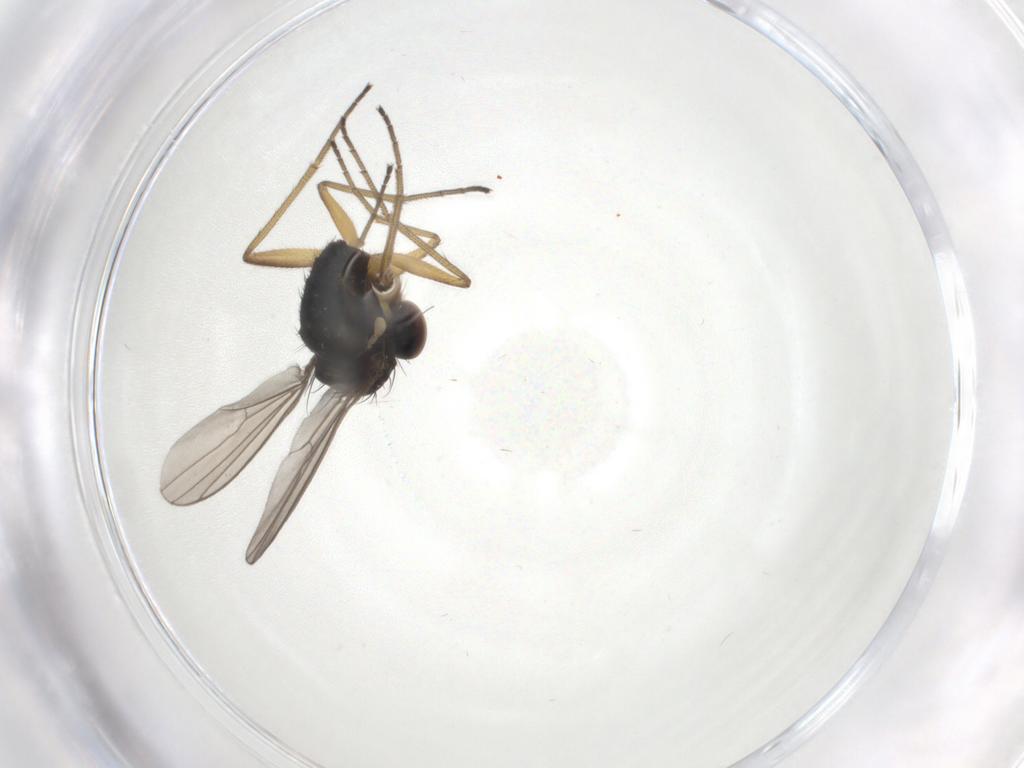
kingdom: Animalia
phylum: Arthropoda
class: Insecta
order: Diptera
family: Dolichopodidae
